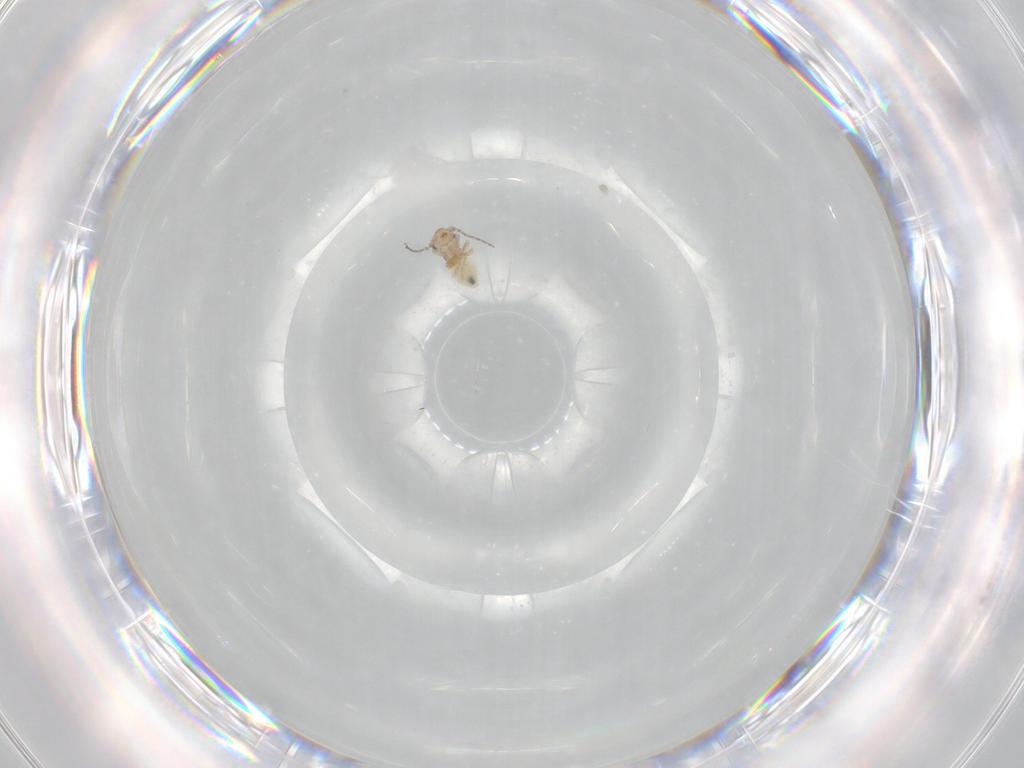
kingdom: Animalia
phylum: Arthropoda
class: Insecta
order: Psocodea
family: Lepidopsocidae
